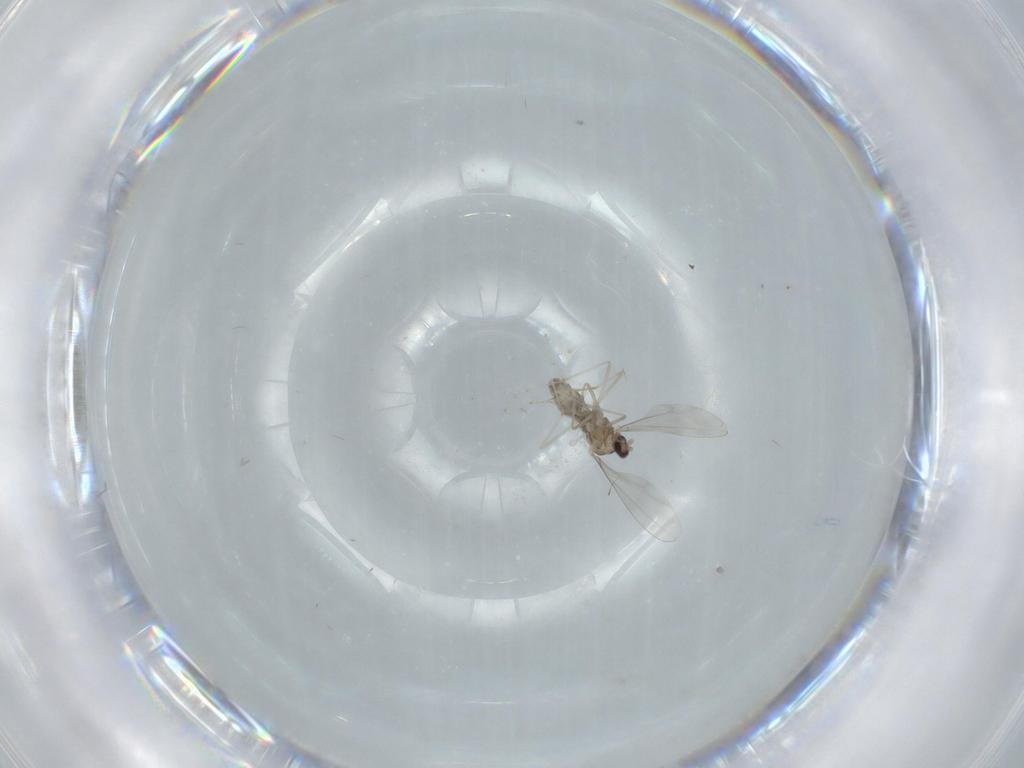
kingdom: Animalia
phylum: Arthropoda
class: Insecta
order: Diptera
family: Cecidomyiidae
